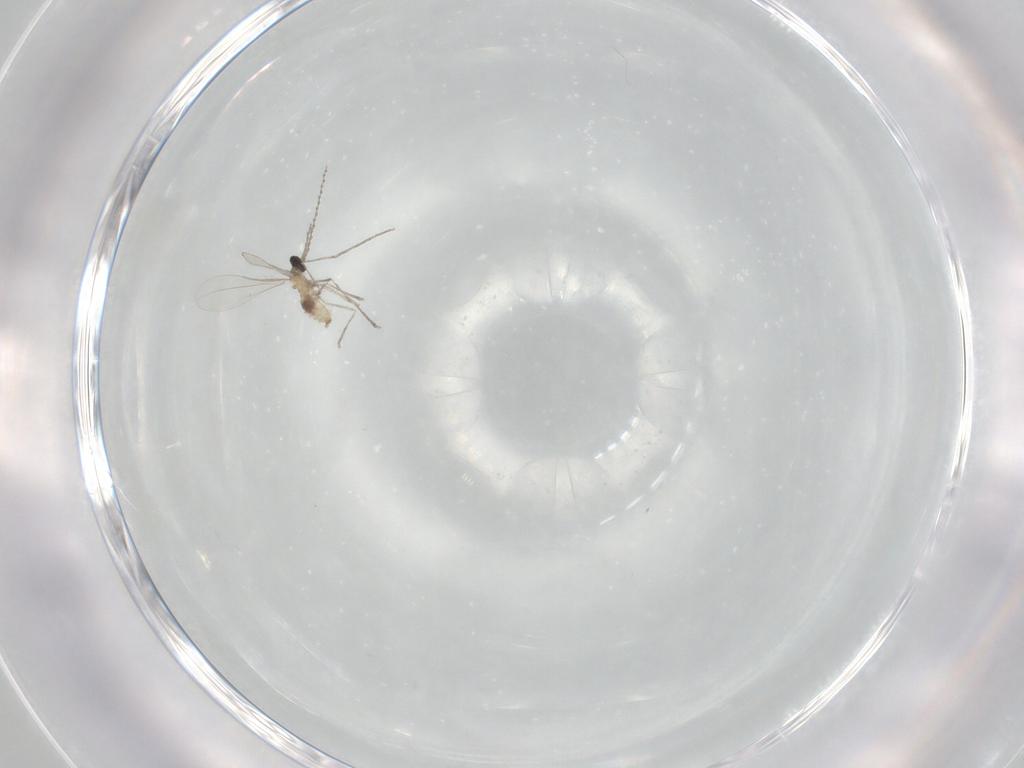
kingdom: Animalia
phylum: Arthropoda
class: Insecta
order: Diptera
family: Cecidomyiidae
